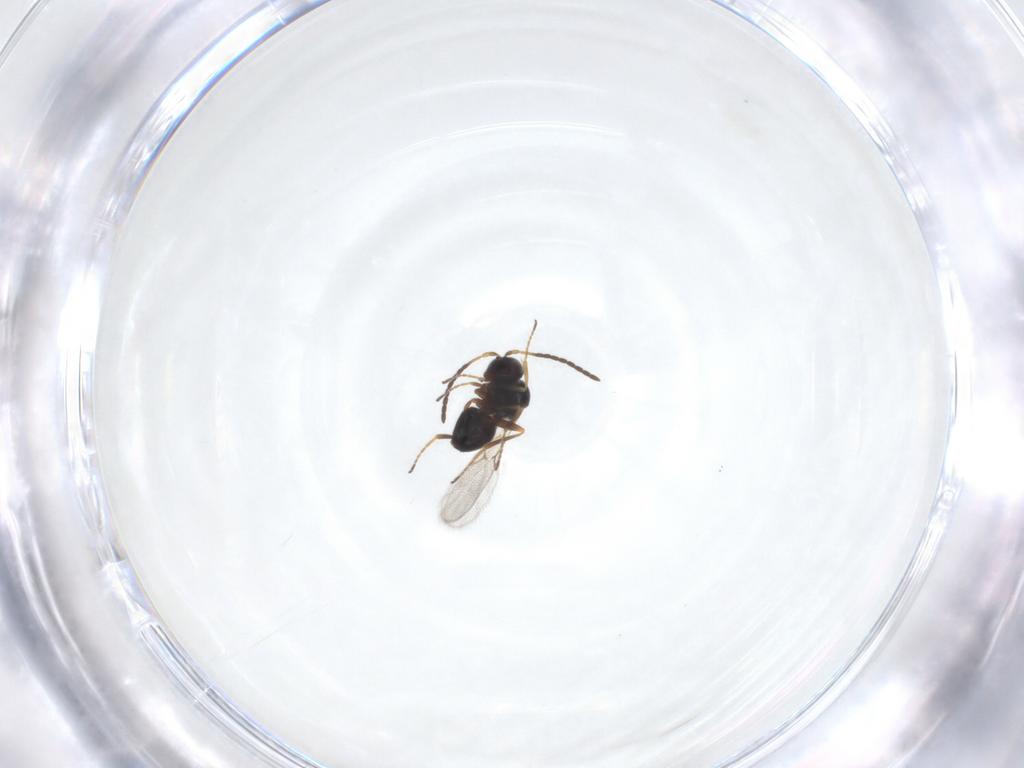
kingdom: Animalia
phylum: Arthropoda
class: Insecta
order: Hymenoptera
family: Figitidae
